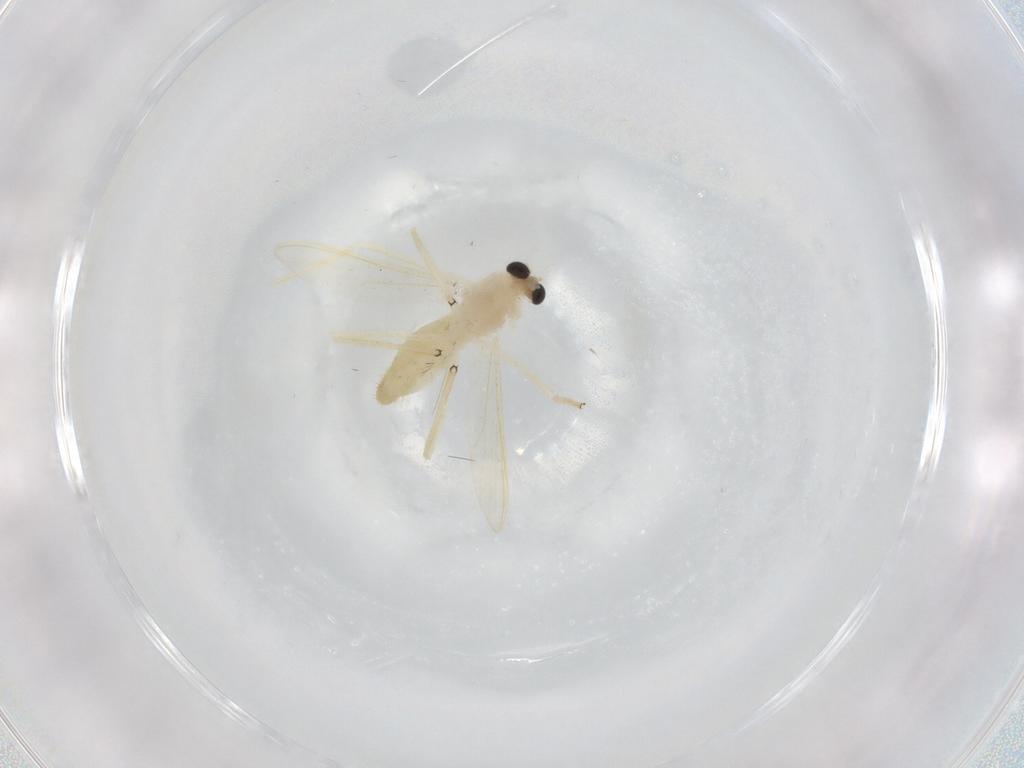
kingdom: Animalia
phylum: Arthropoda
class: Insecta
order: Diptera
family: Chironomidae
